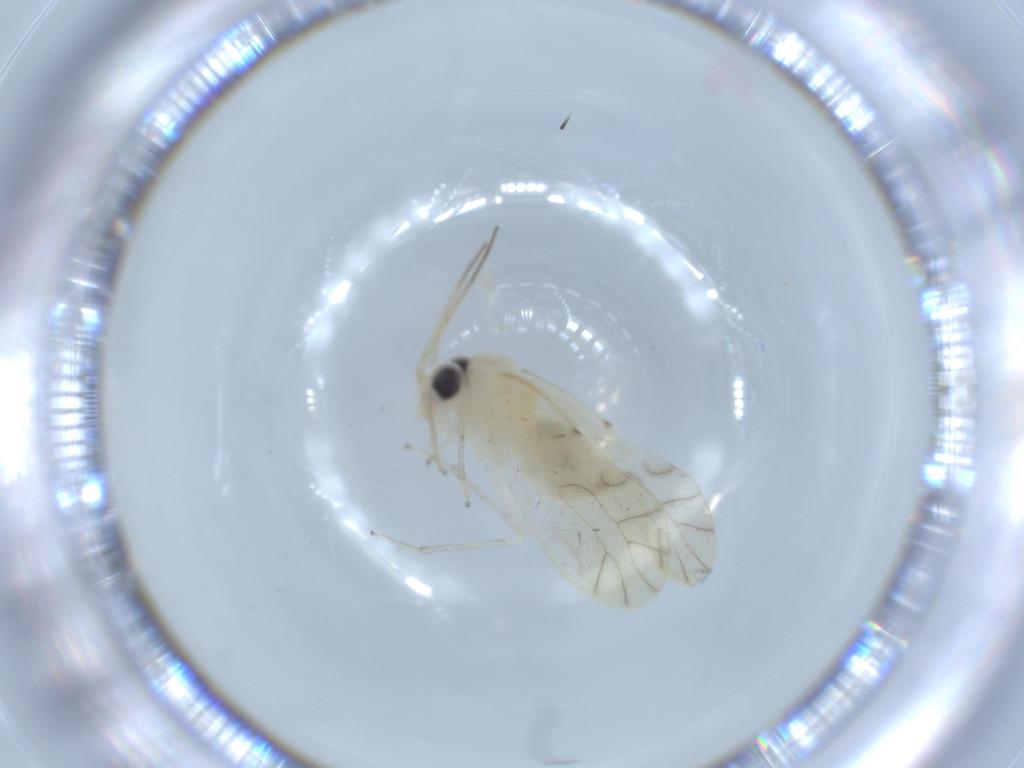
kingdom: Animalia
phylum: Arthropoda
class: Insecta
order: Psocodea
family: Caeciliusidae
